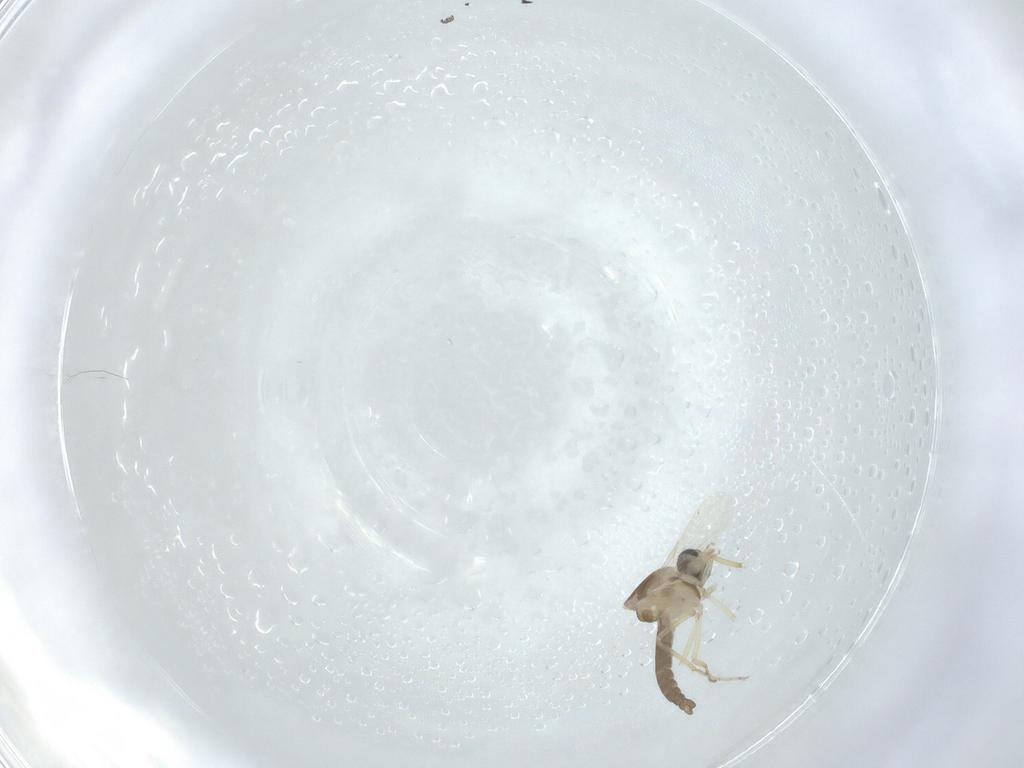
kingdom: Animalia
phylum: Arthropoda
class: Insecta
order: Diptera
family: Ceratopogonidae
